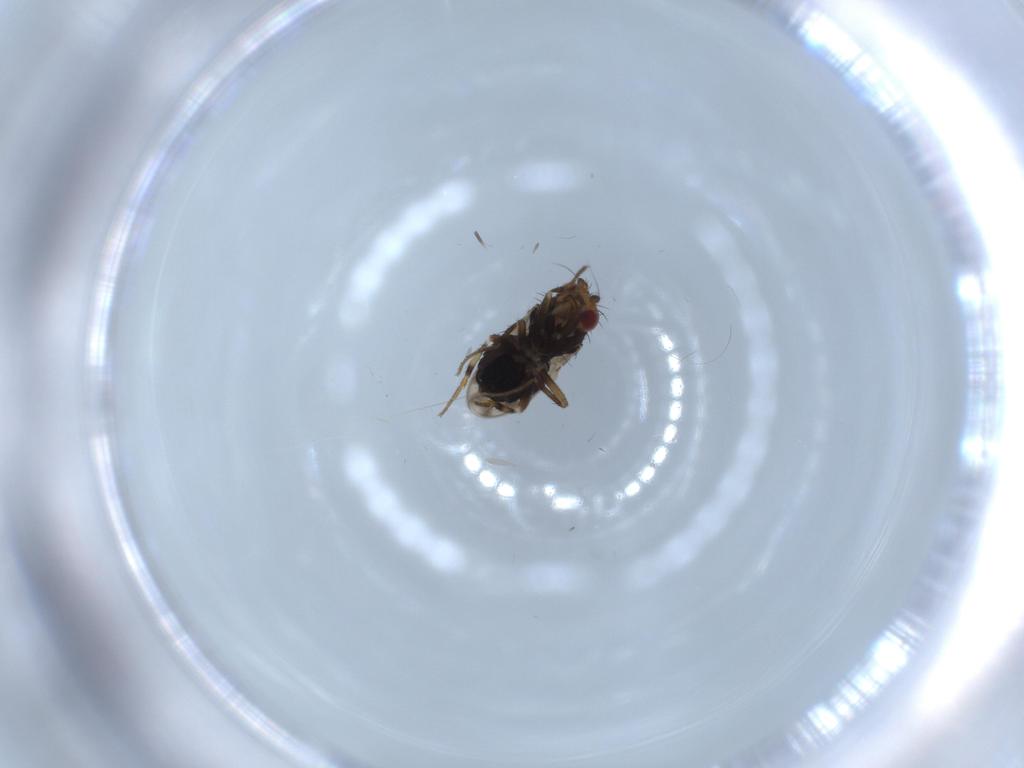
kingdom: Animalia
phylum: Arthropoda
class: Insecta
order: Diptera
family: Sphaeroceridae
